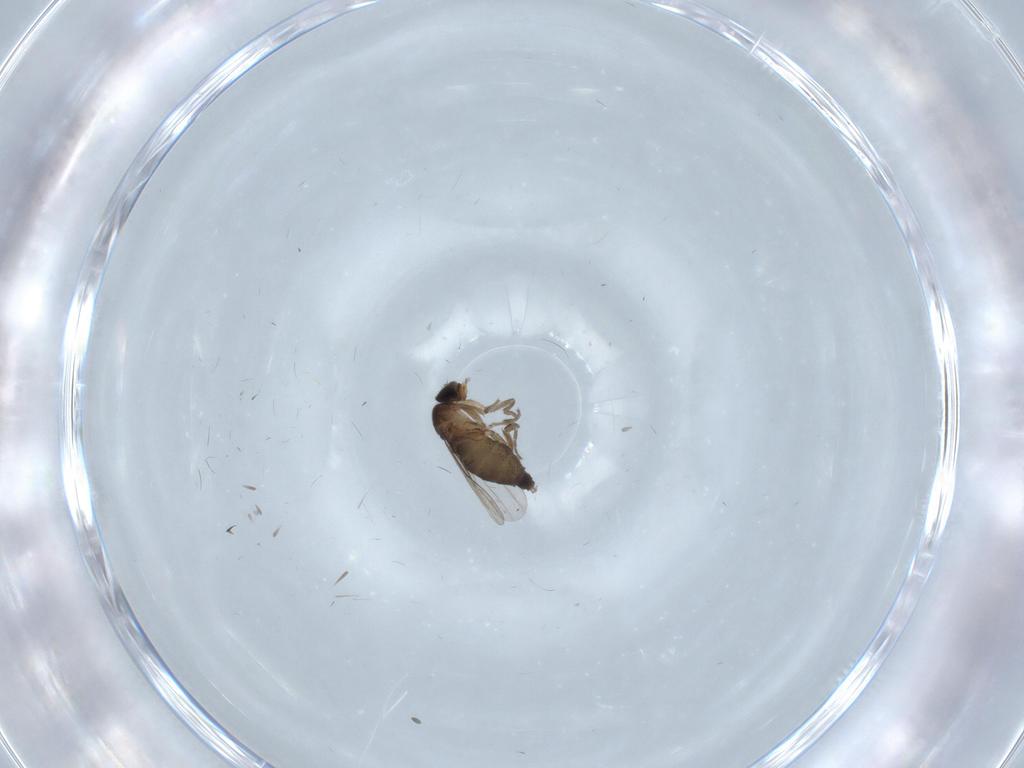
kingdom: Animalia
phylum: Arthropoda
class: Insecta
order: Diptera
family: Phoridae
